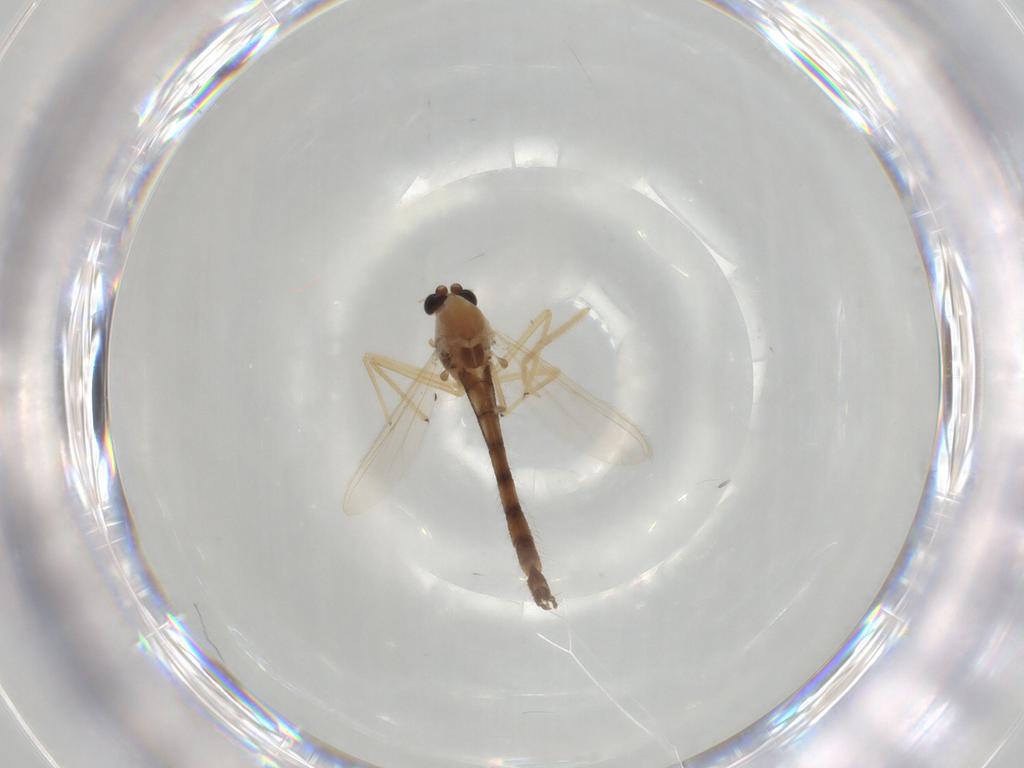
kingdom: Animalia
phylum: Arthropoda
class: Insecta
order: Diptera
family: Chironomidae
